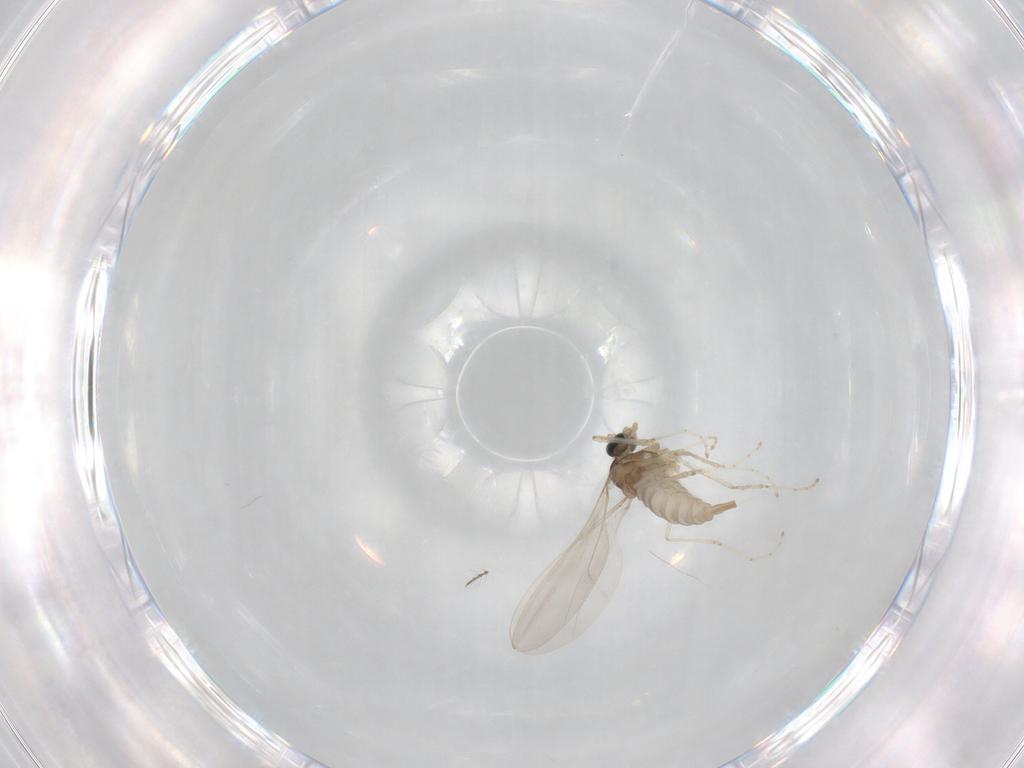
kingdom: Animalia
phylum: Arthropoda
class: Insecta
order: Diptera
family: Cecidomyiidae
